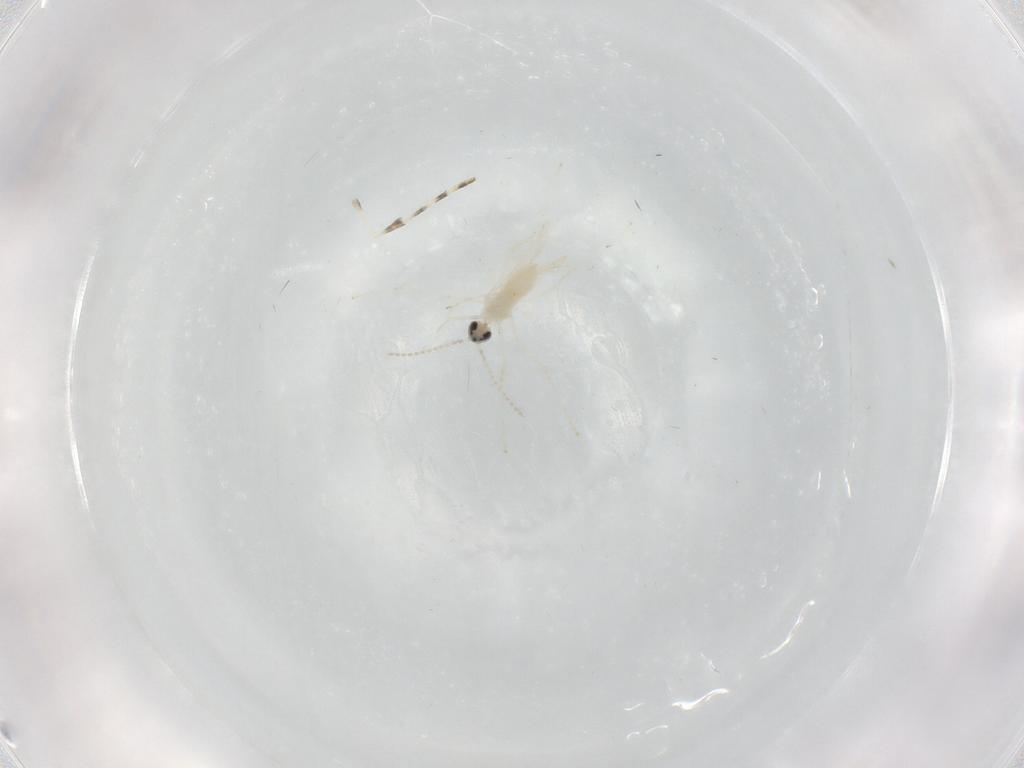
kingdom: Animalia
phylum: Arthropoda
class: Insecta
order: Diptera
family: Cecidomyiidae
